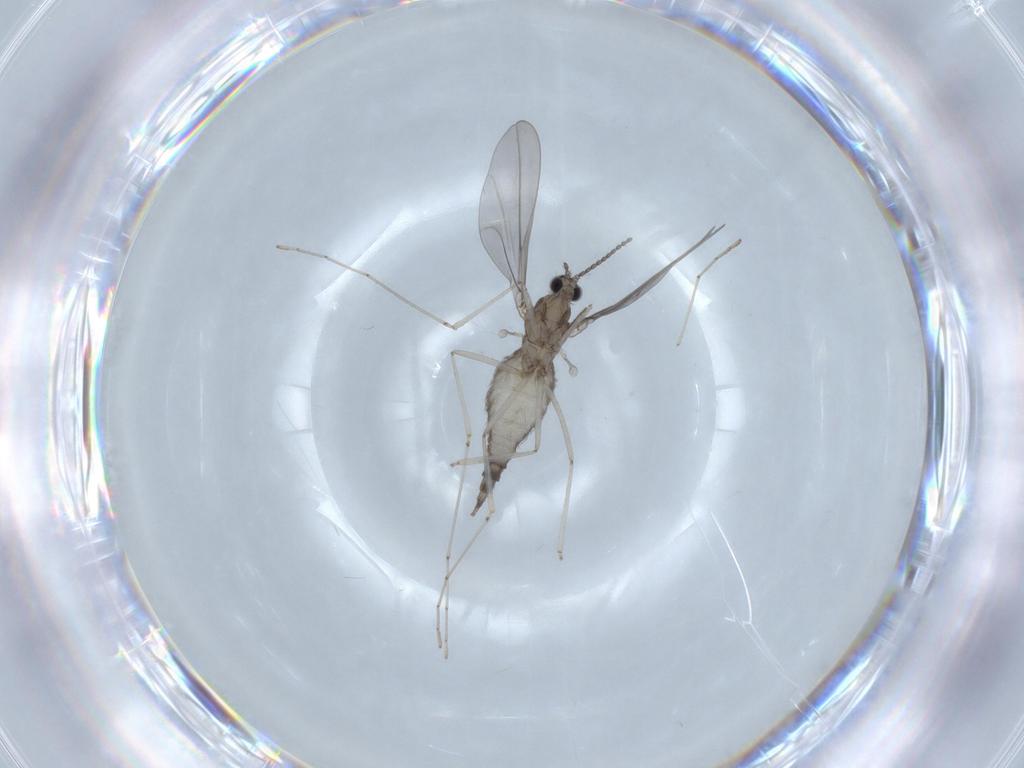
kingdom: Animalia
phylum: Arthropoda
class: Insecta
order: Diptera
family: Cecidomyiidae
